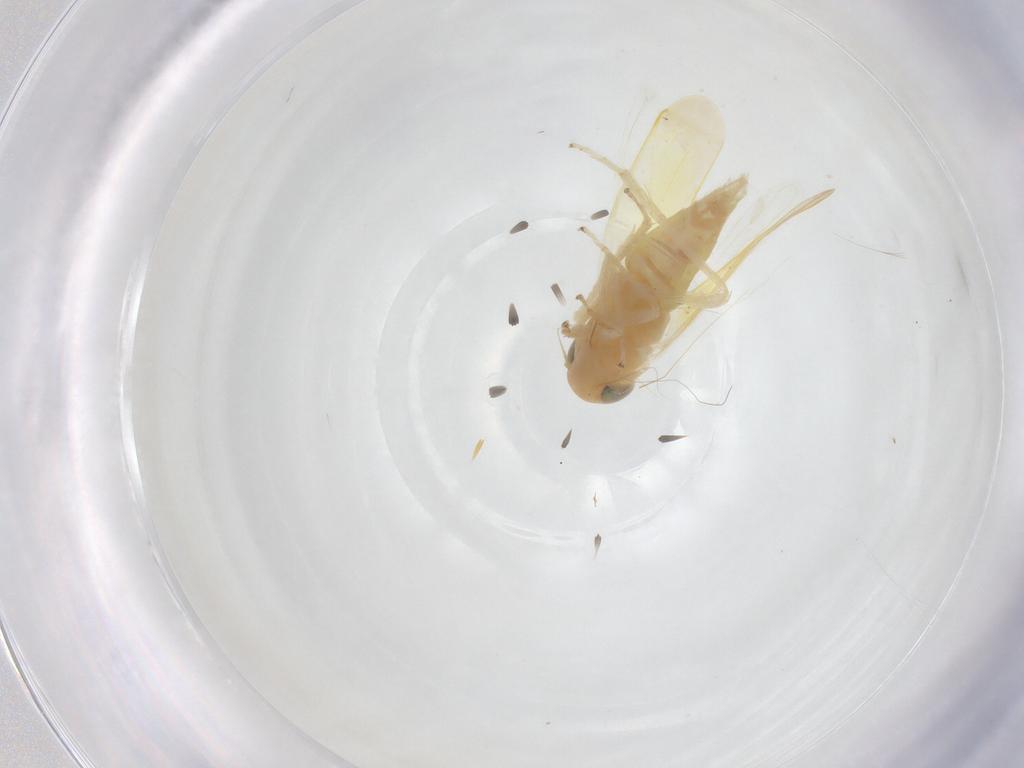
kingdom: Animalia
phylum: Arthropoda
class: Insecta
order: Hemiptera
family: Cicadellidae
